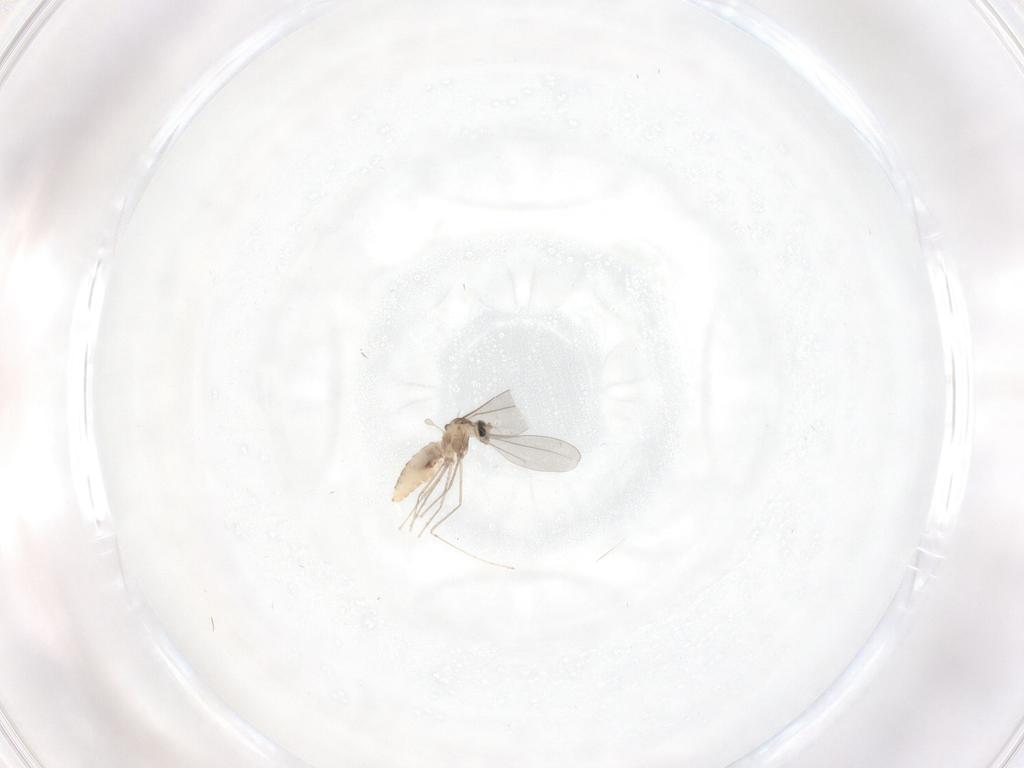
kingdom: Animalia
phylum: Arthropoda
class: Insecta
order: Diptera
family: Cecidomyiidae
